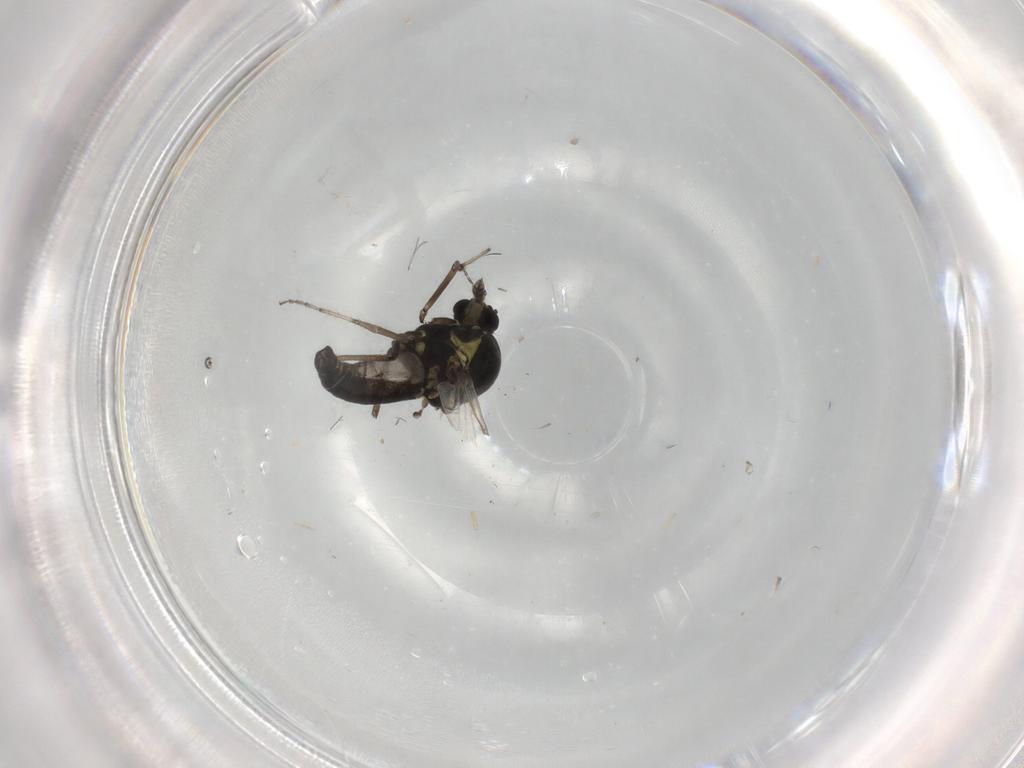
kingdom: Animalia
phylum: Arthropoda
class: Insecta
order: Diptera
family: Ceratopogonidae
